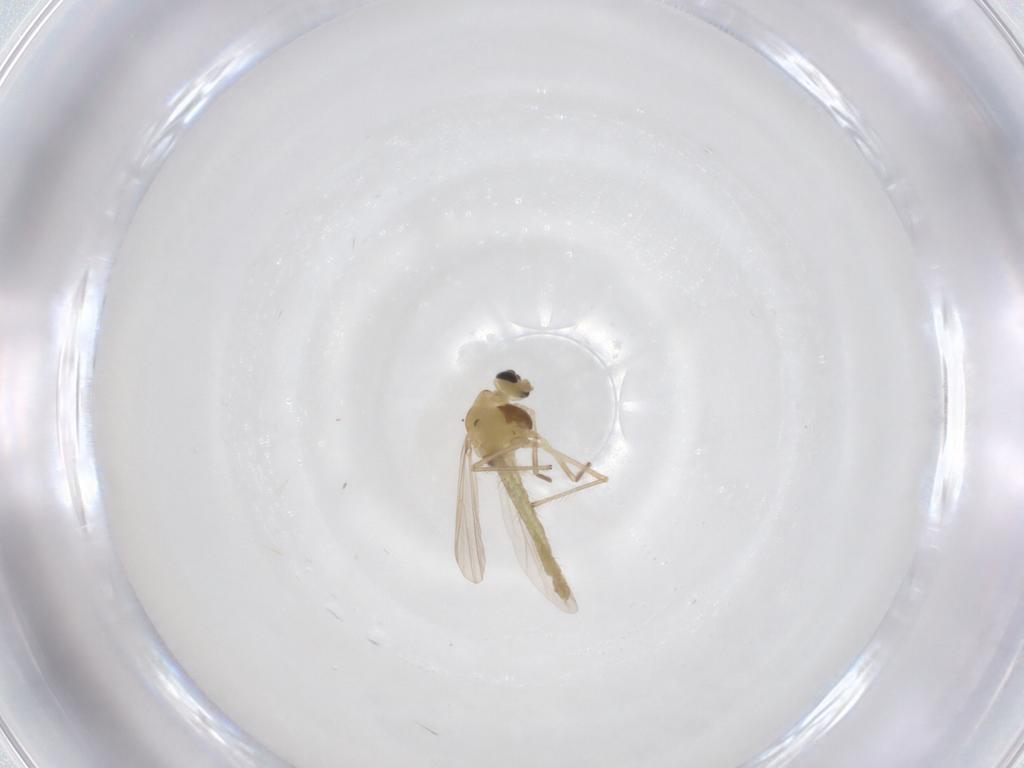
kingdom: Animalia
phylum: Arthropoda
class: Insecta
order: Diptera
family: Chironomidae
